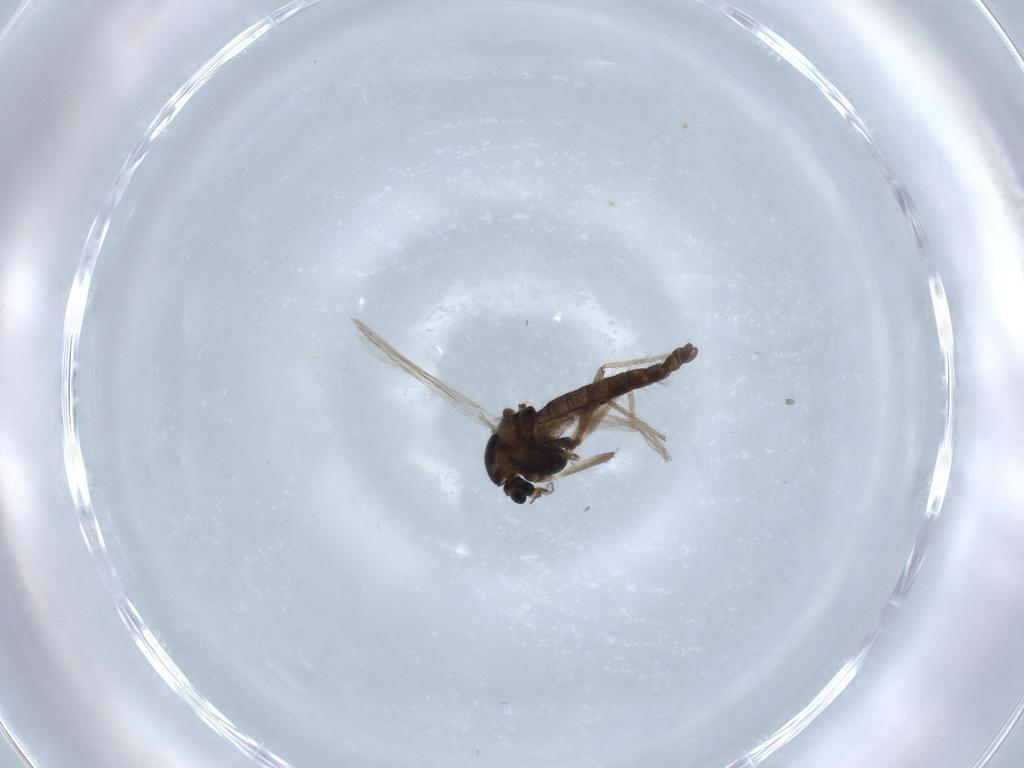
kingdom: Animalia
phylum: Arthropoda
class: Insecta
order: Diptera
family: Chironomidae
